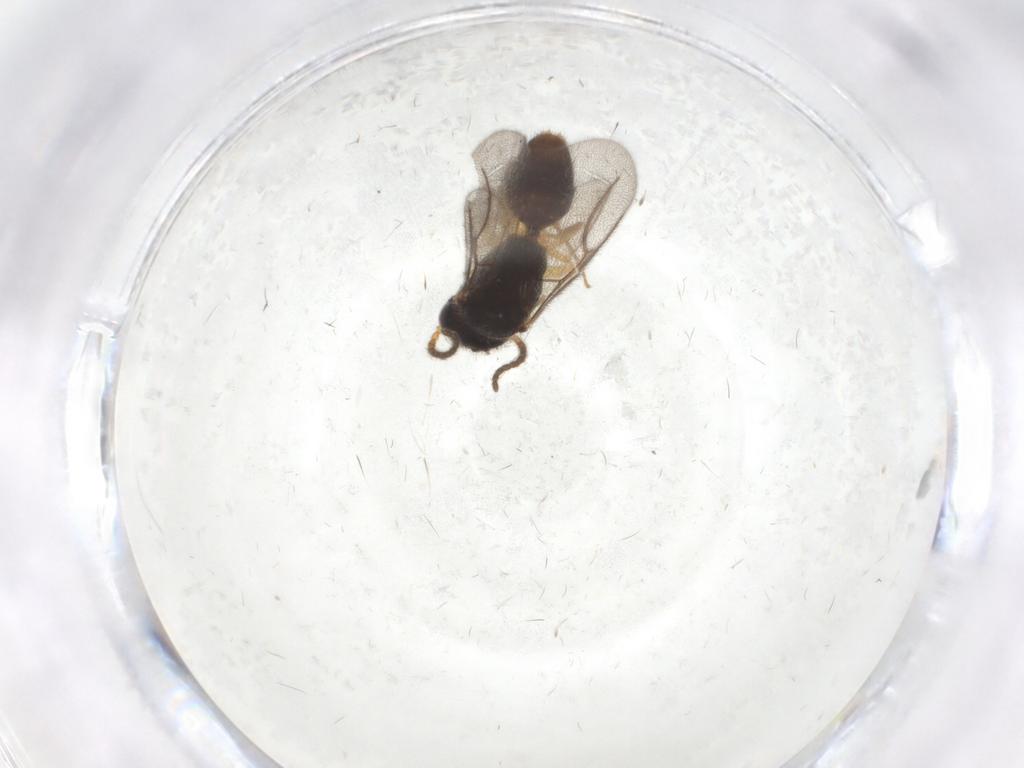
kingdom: Animalia
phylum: Arthropoda
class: Insecta
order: Hymenoptera
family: Bethylidae
